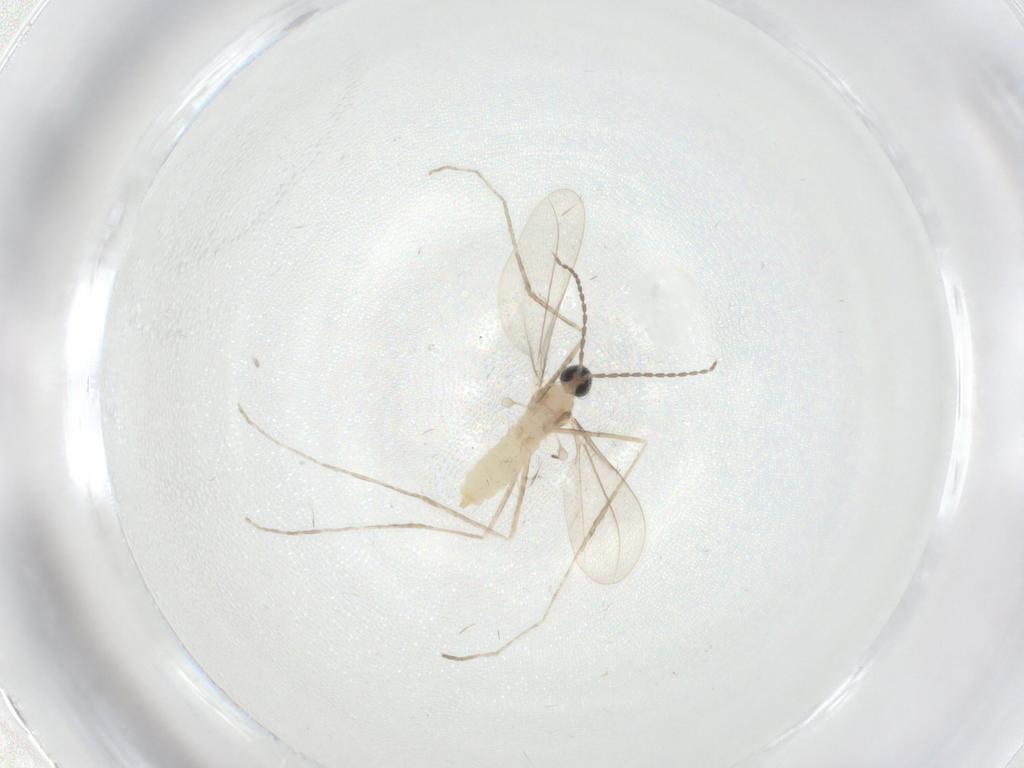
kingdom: Animalia
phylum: Arthropoda
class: Insecta
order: Diptera
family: Cecidomyiidae
